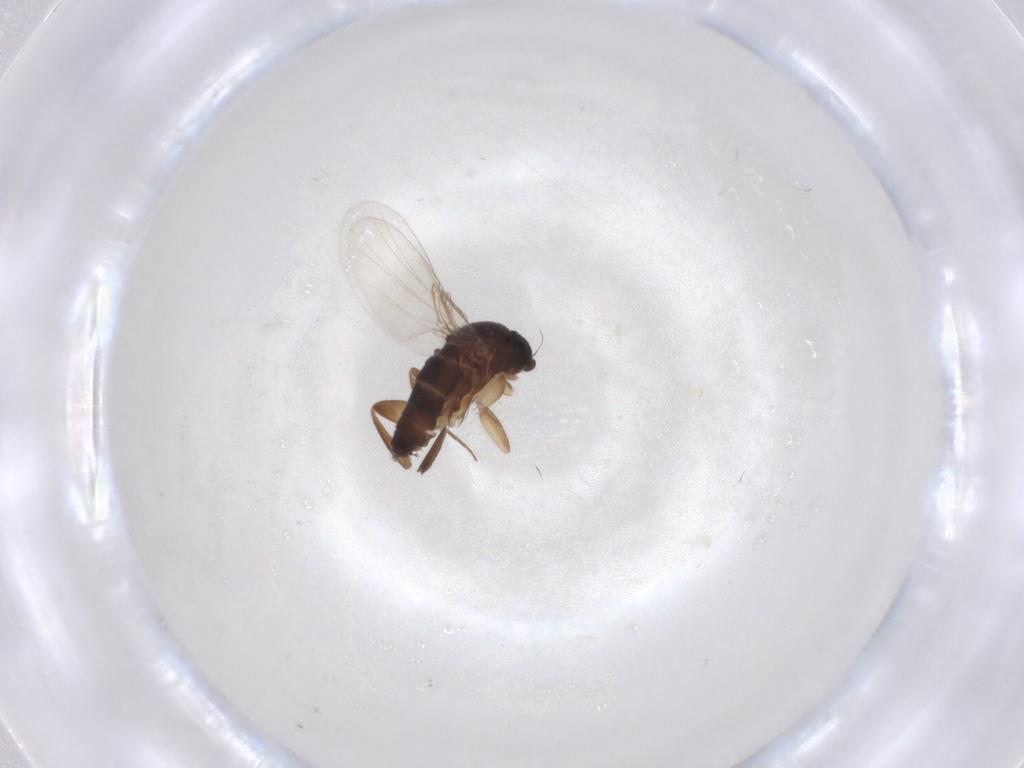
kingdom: Animalia
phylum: Arthropoda
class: Insecta
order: Diptera
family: Phoridae
